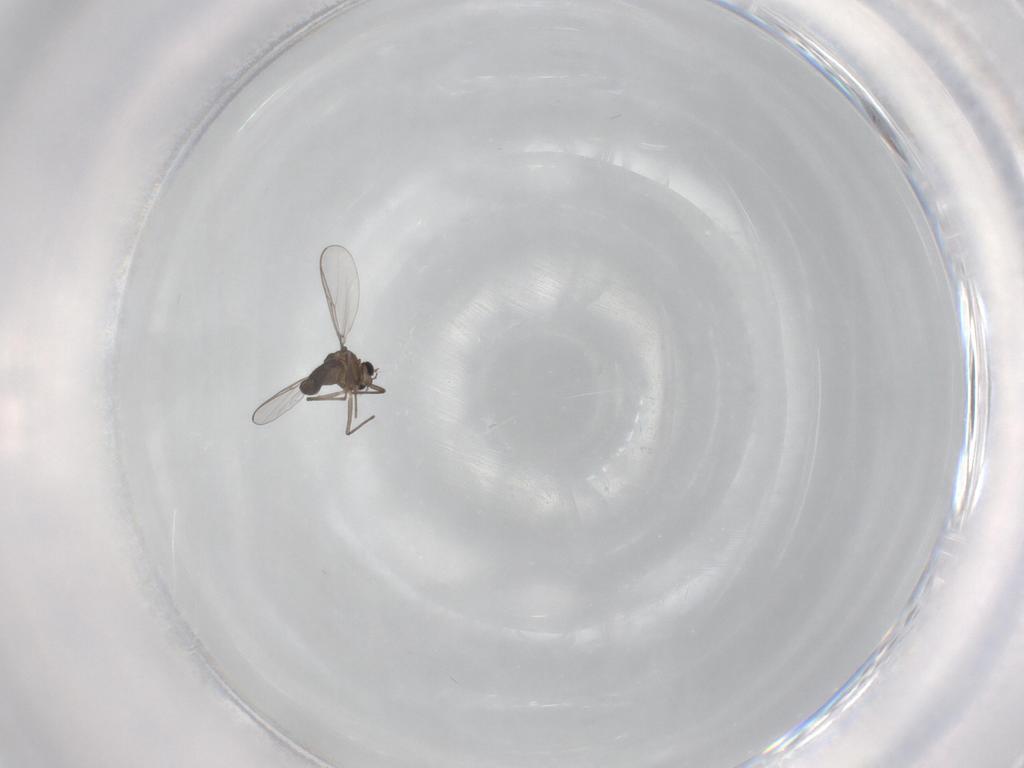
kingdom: Animalia
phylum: Arthropoda
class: Insecta
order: Diptera
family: Chironomidae
